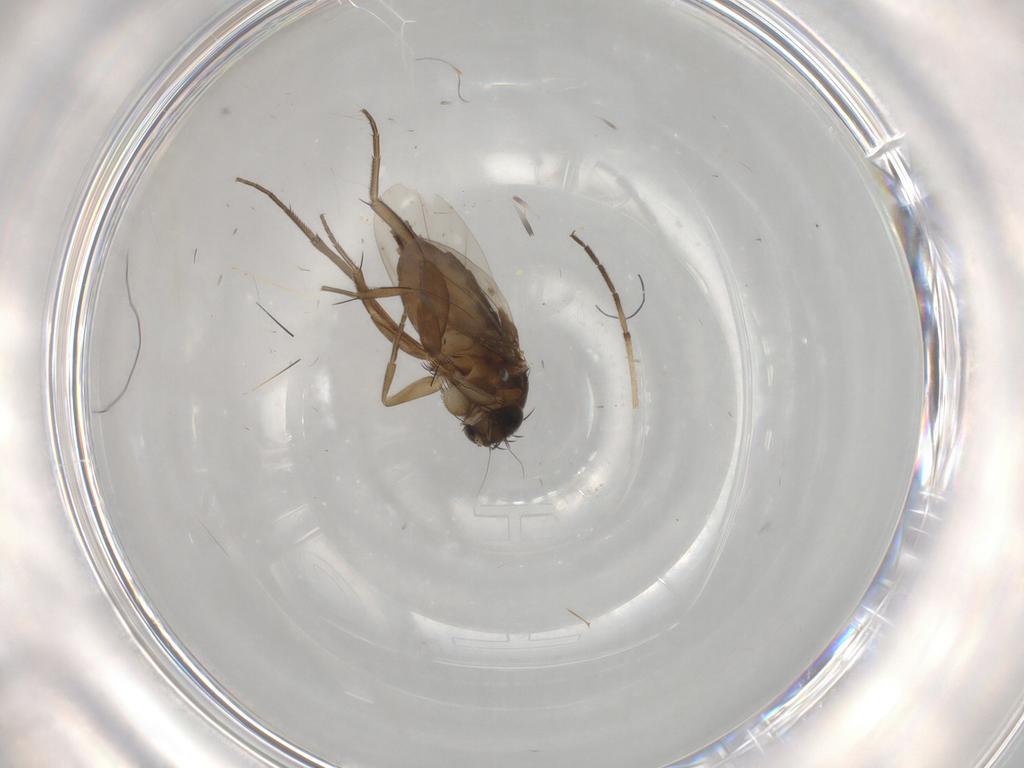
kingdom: Animalia
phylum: Arthropoda
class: Insecta
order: Diptera
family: Phoridae
